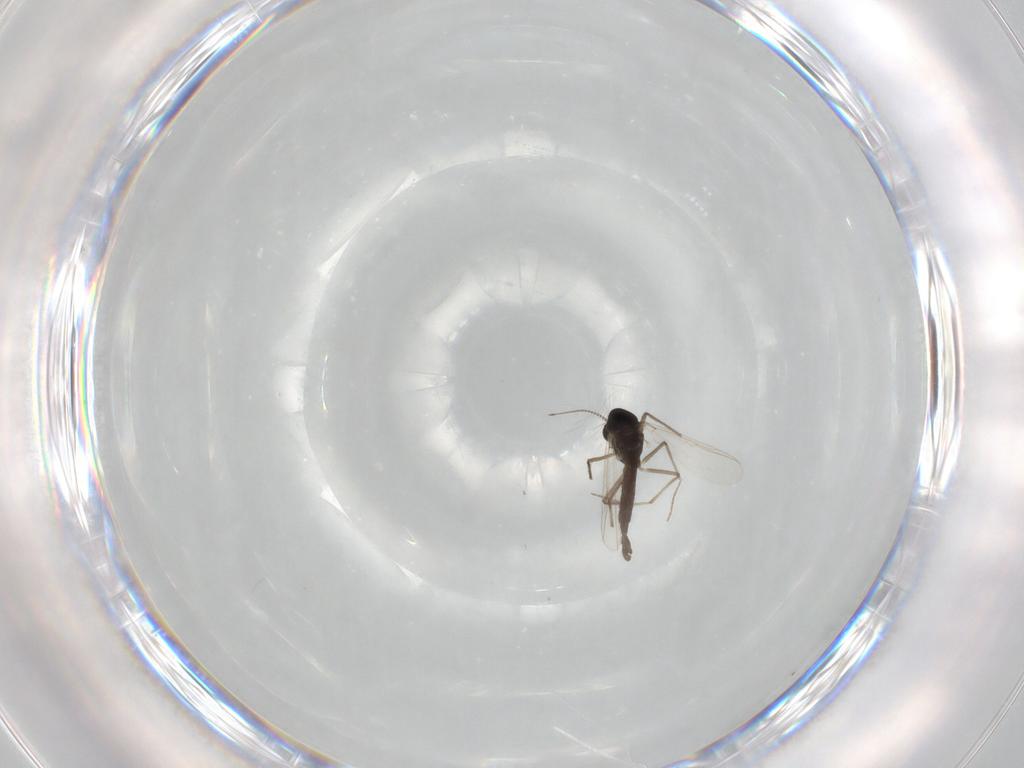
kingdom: Animalia
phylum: Arthropoda
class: Insecta
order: Diptera
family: Chironomidae
